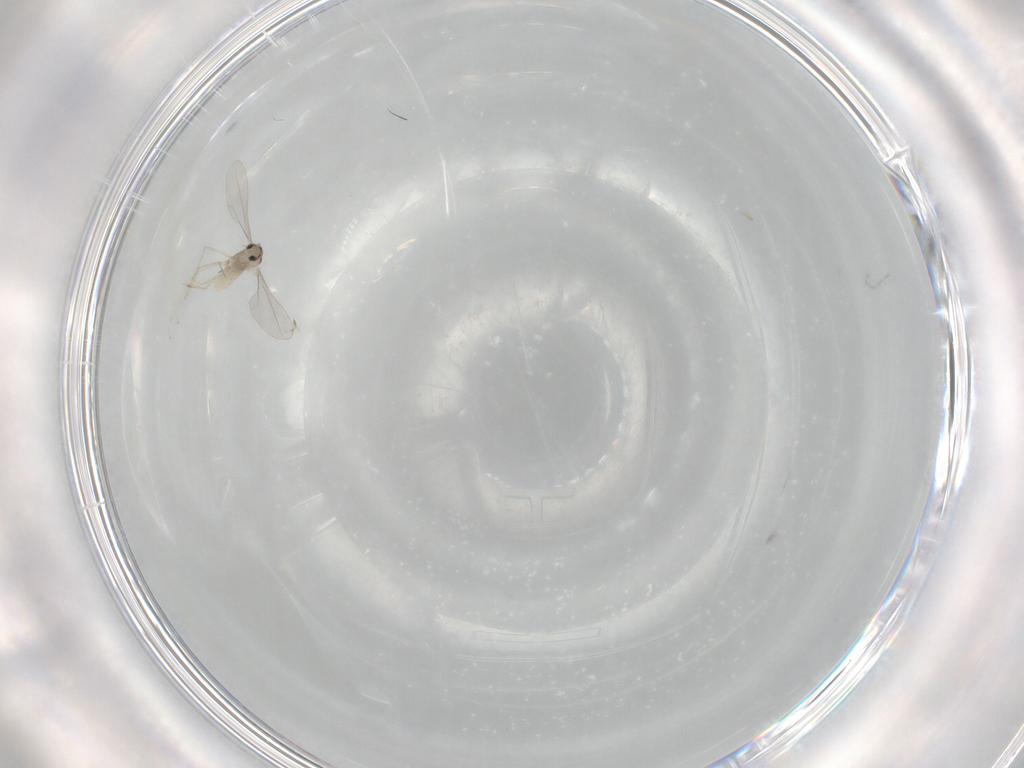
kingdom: Animalia
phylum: Arthropoda
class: Insecta
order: Diptera
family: Cecidomyiidae
